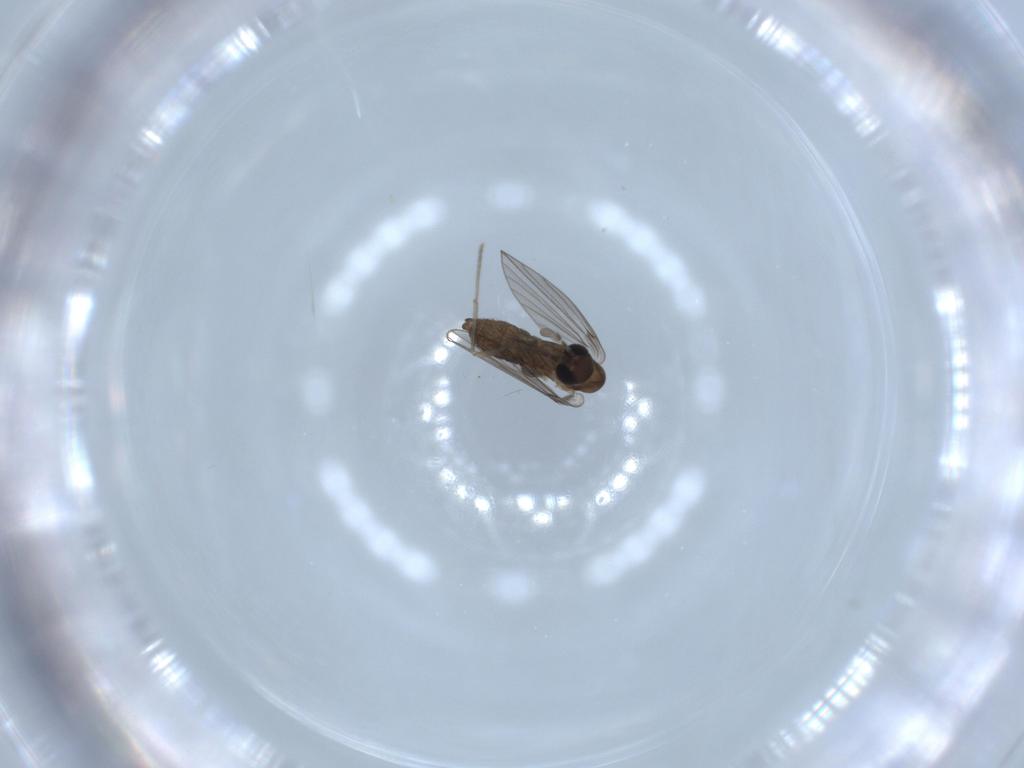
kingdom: Animalia
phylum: Arthropoda
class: Insecta
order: Diptera
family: Psychodidae
